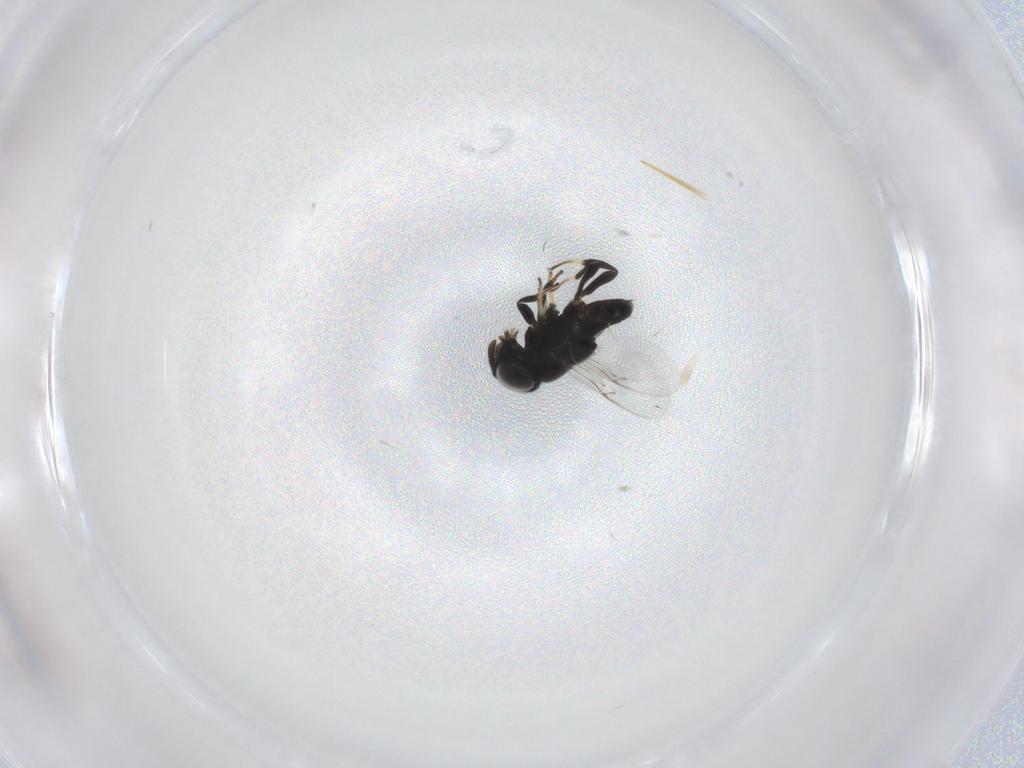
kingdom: Animalia
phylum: Arthropoda
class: Insecta
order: Hymenoptera
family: Encyrtidae
